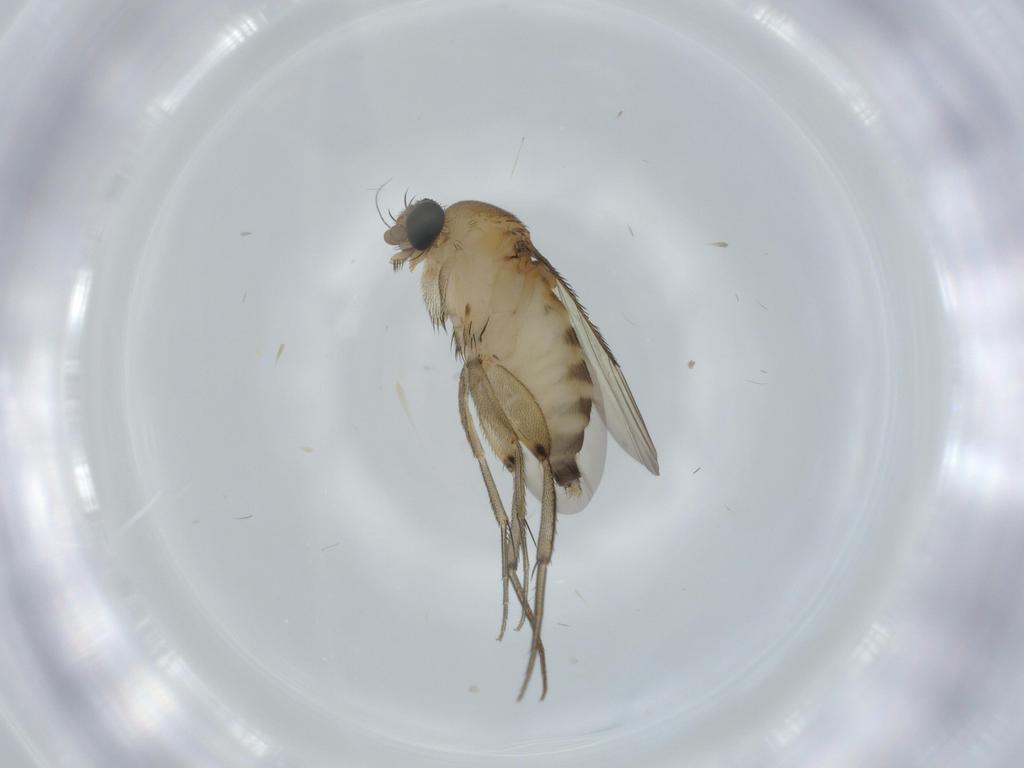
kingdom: Animalia
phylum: Arthropoda
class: Insecta
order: Diptera
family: Phoridae
